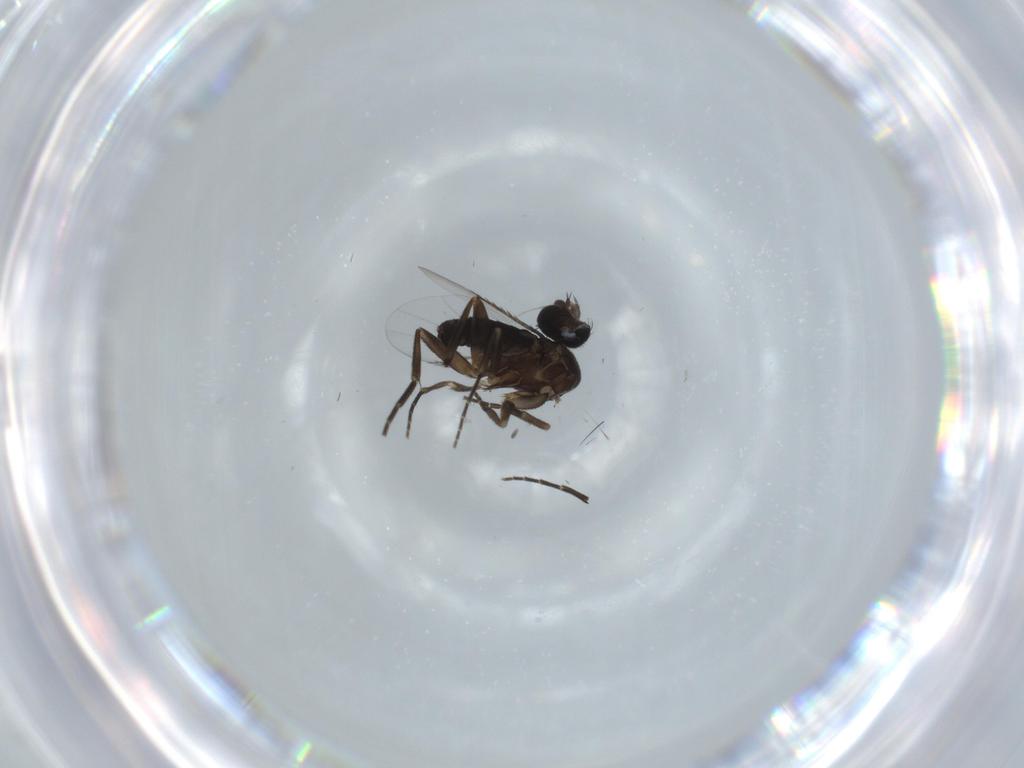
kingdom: Animalia
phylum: Arthropoda
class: Insecta
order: Diptera
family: Phoridae
